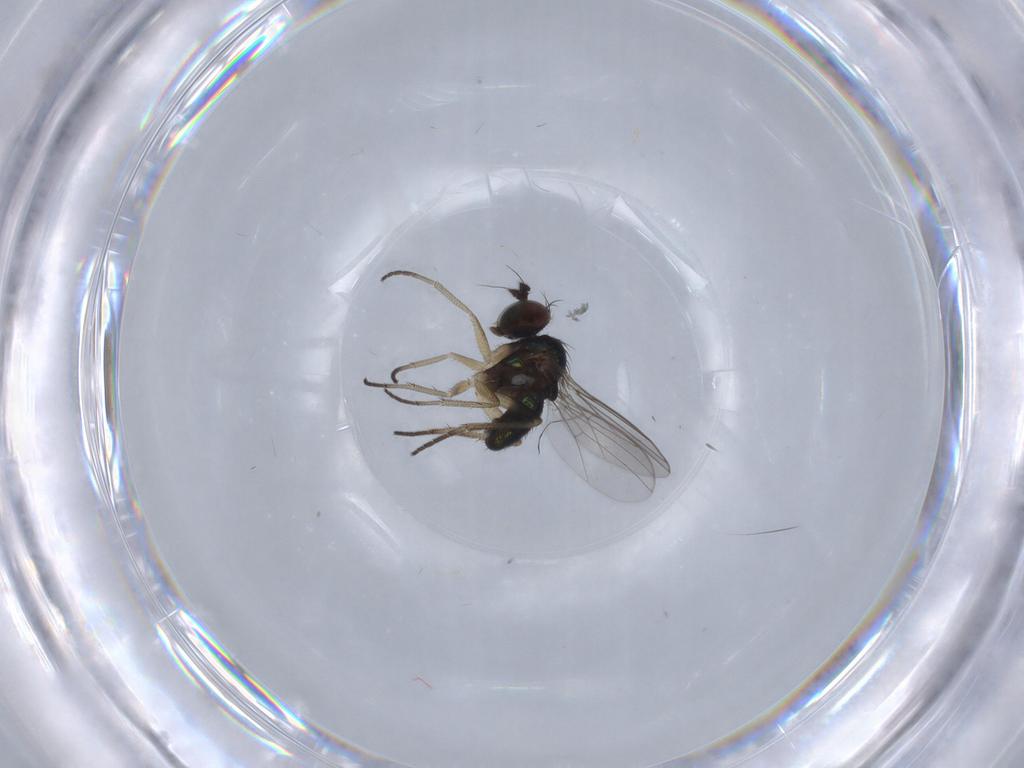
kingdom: Animalia
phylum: Arthropoda
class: Insecta
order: Diptera
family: Dolichopodidae
